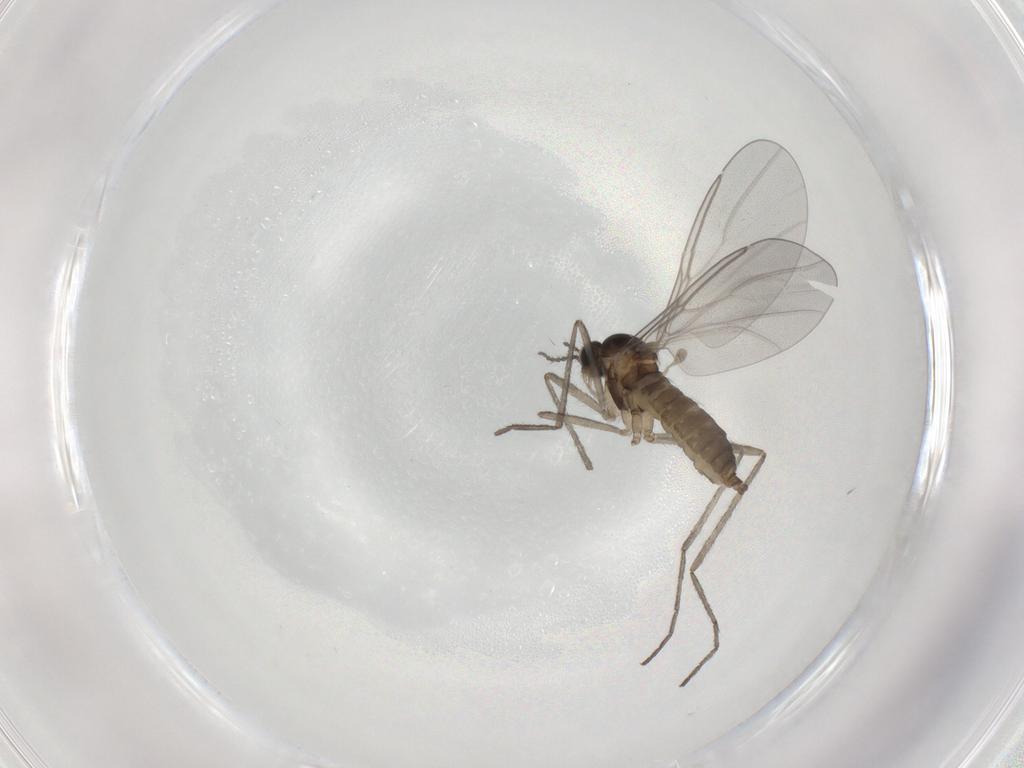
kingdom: Animalia
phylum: Arthropoda
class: Insecta
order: Diptera
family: Cecidomyiidae
